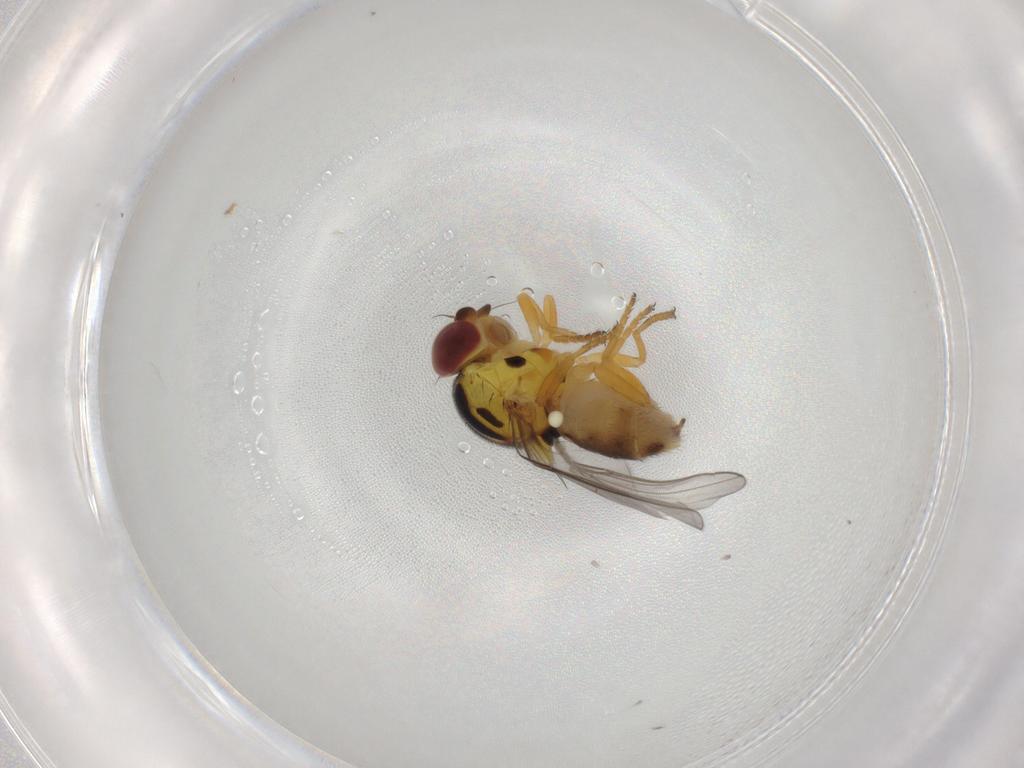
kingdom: Animalia
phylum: Arthropoda
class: Insecta
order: Diptera
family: Chloropidae
